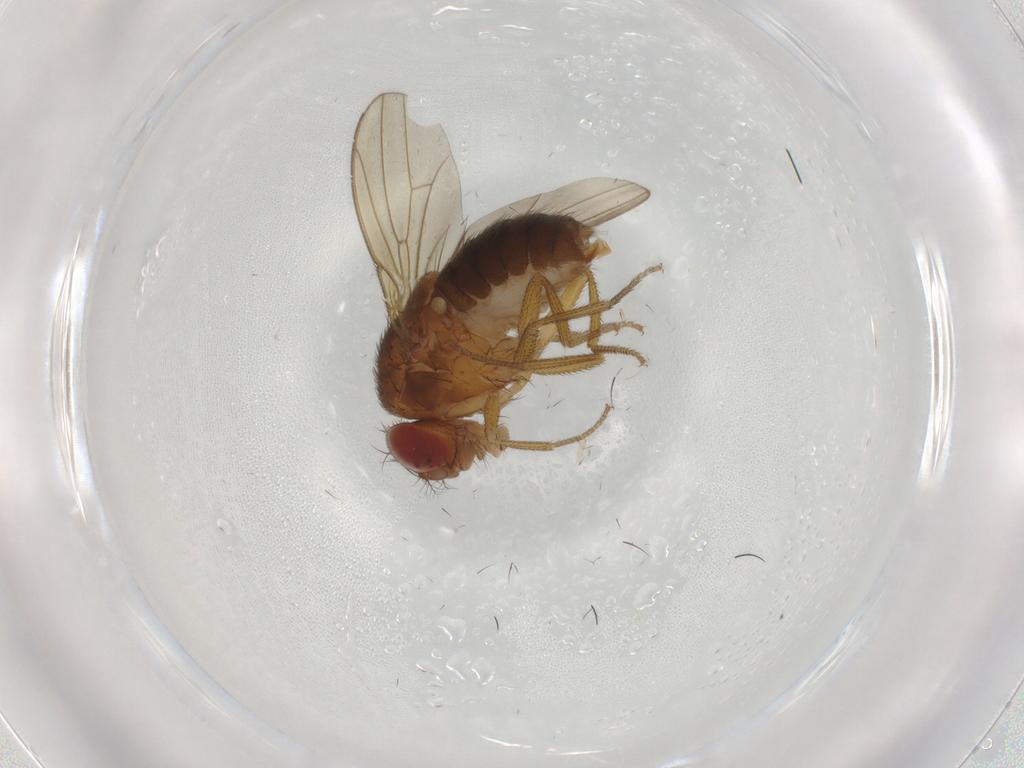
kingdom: Animalia
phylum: Arthropoda
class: Insecta
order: Diptera
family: Drosophilidae
